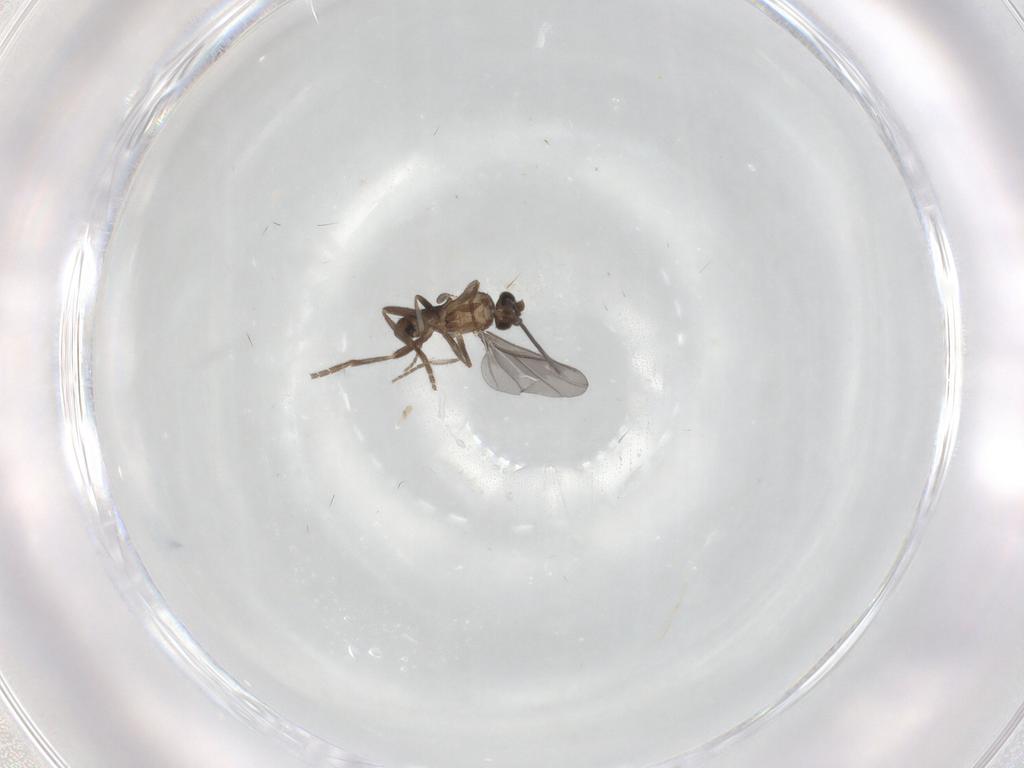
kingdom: Animalia
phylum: Arthropoda
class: Insecta
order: Diptera
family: Phoridae
